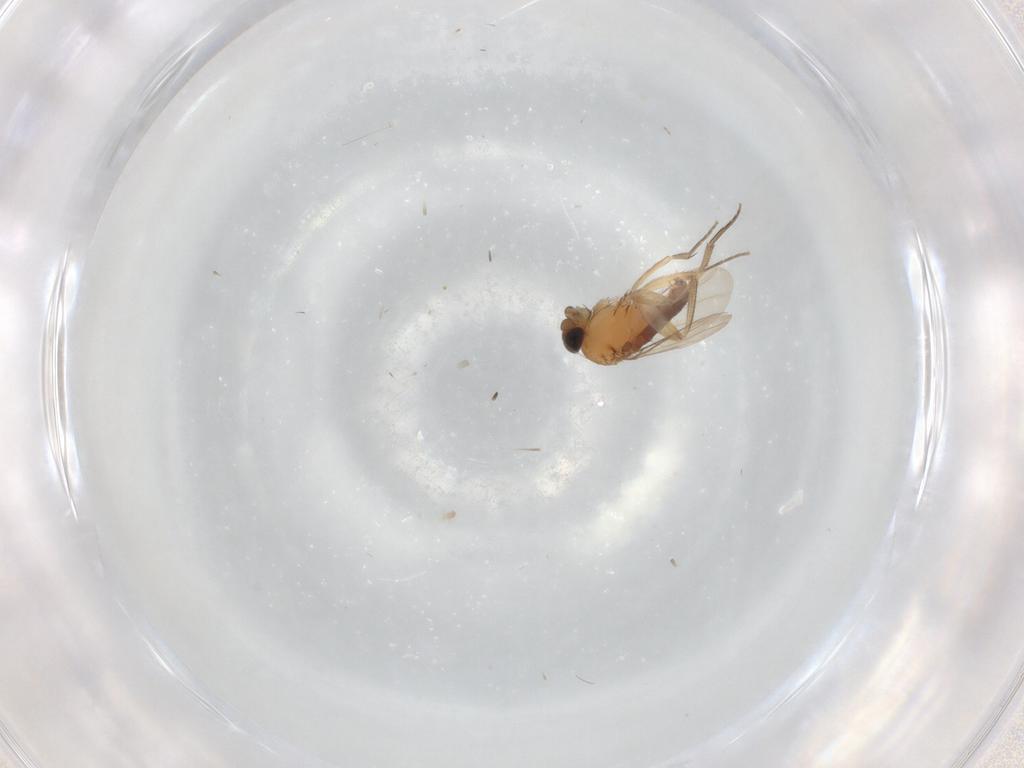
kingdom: Animalia
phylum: Arthropoda
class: Insecta
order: Diptera
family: Phoridae
